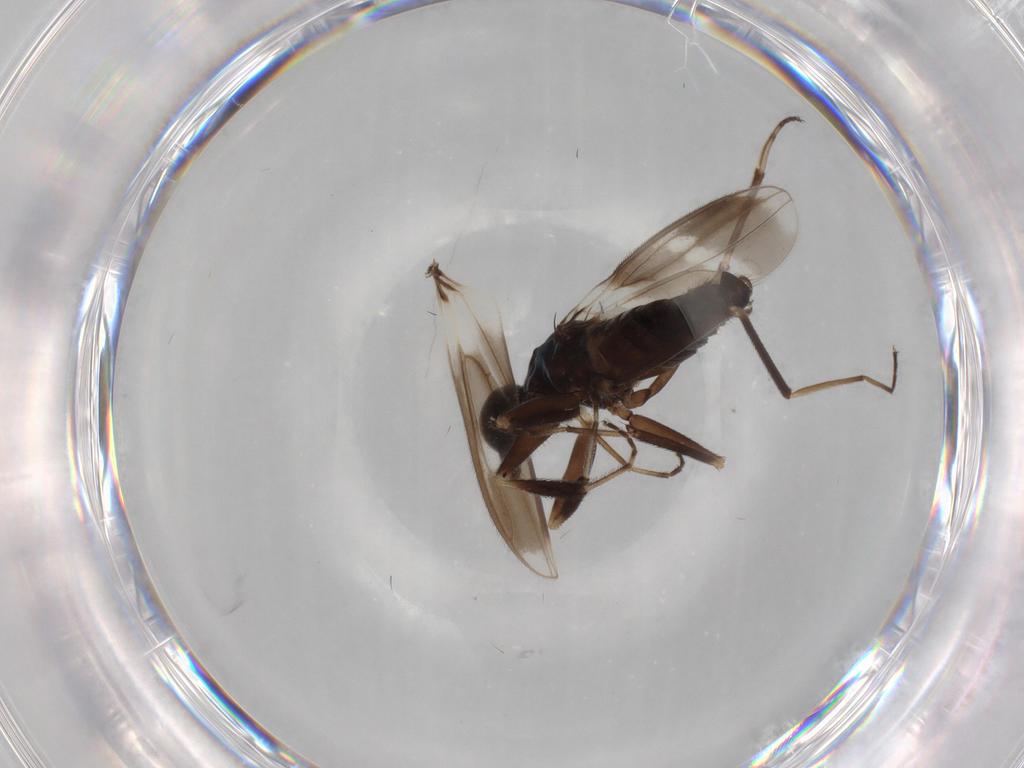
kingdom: Animalia
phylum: Arthropoda
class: Insecta
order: Diptera
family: Hybotidae
